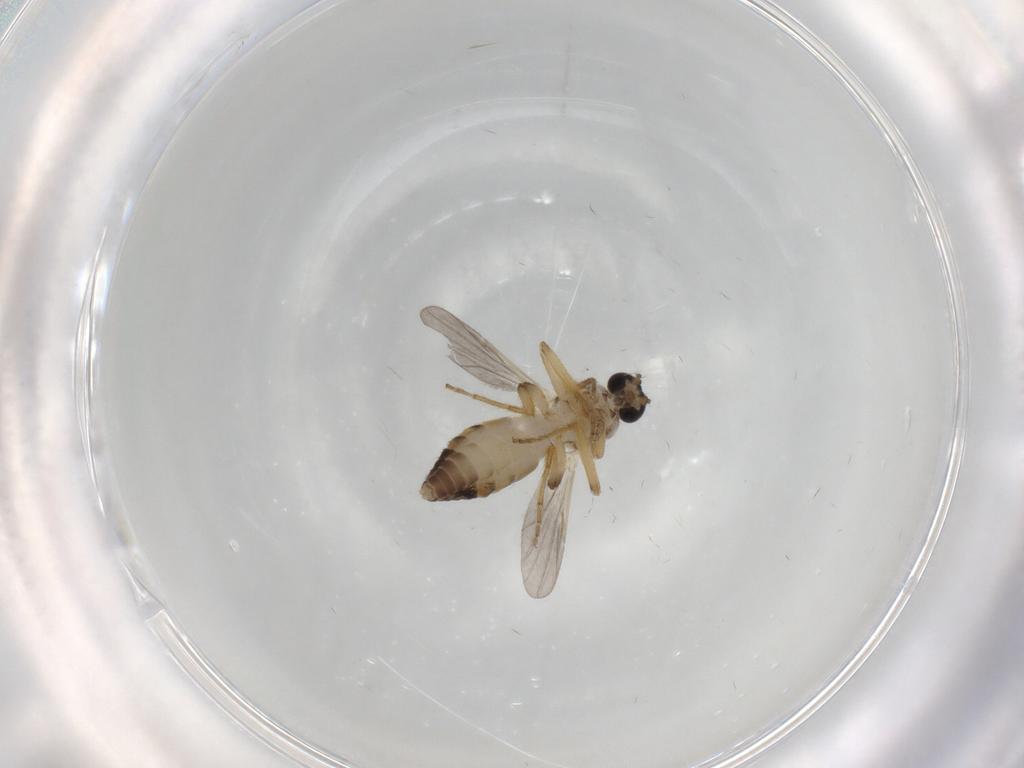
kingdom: Animalia
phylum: Arthropoda
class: Insecta
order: Diptera
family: Ceratopogonidae
